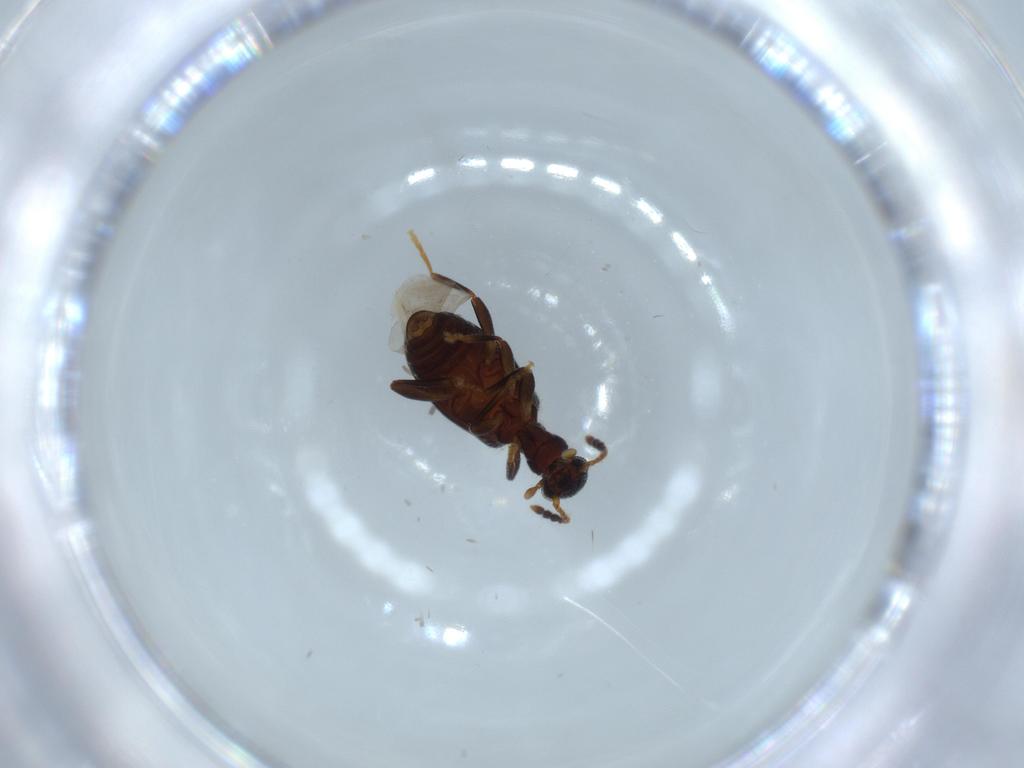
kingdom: Animalia
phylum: Arthropoda
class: Insecta
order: Coleoptera
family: Anthicidae
